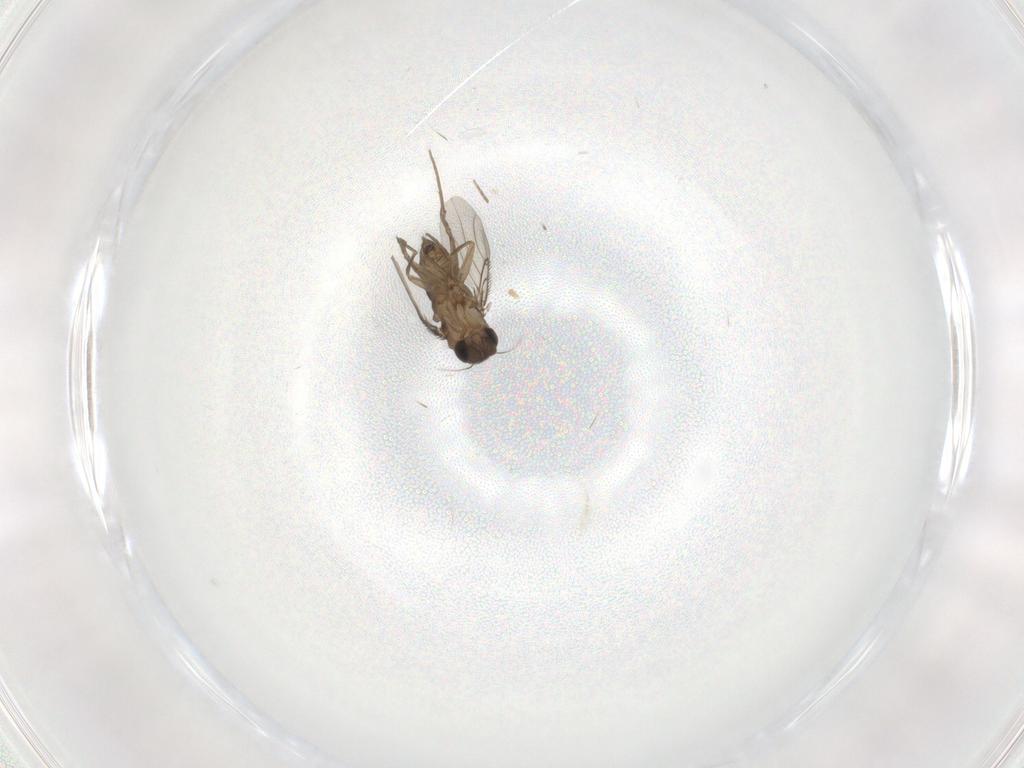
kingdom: Animalia
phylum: Arthropoda
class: Insecta
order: Diptera
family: Phoridae
